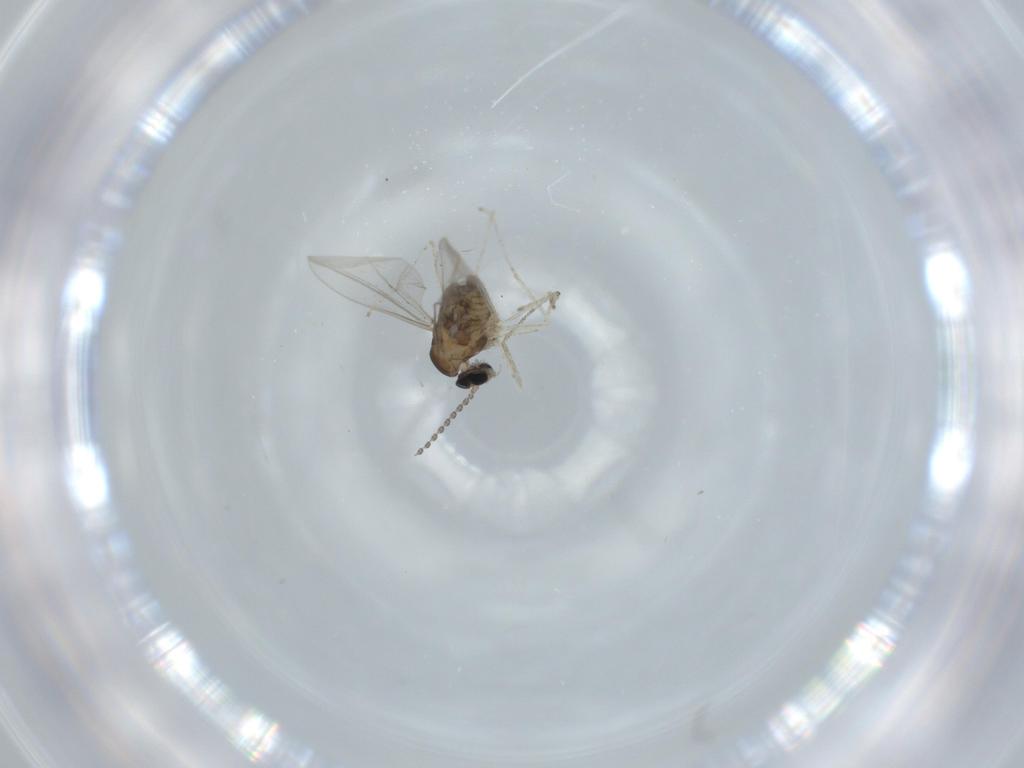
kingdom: Animalia
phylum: Arthropoda
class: Insecta
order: Diptera
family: Cecidomyiidae
